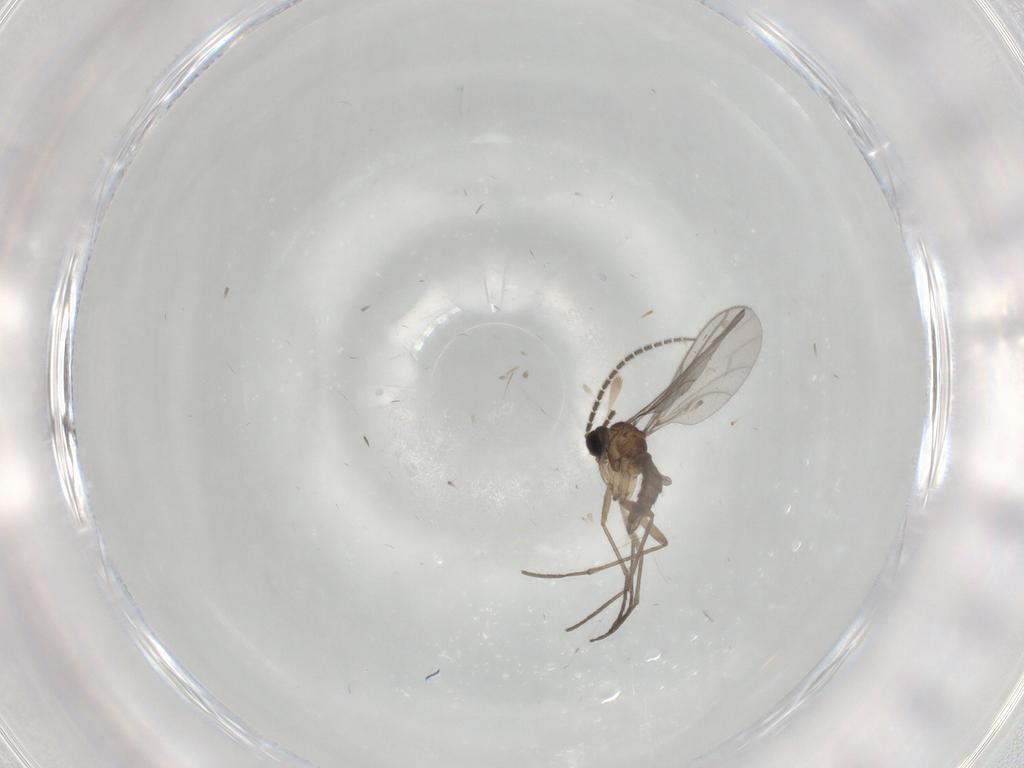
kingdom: Animalia
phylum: Arthropoda
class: Insecta
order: Diptera
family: Sciaridae
